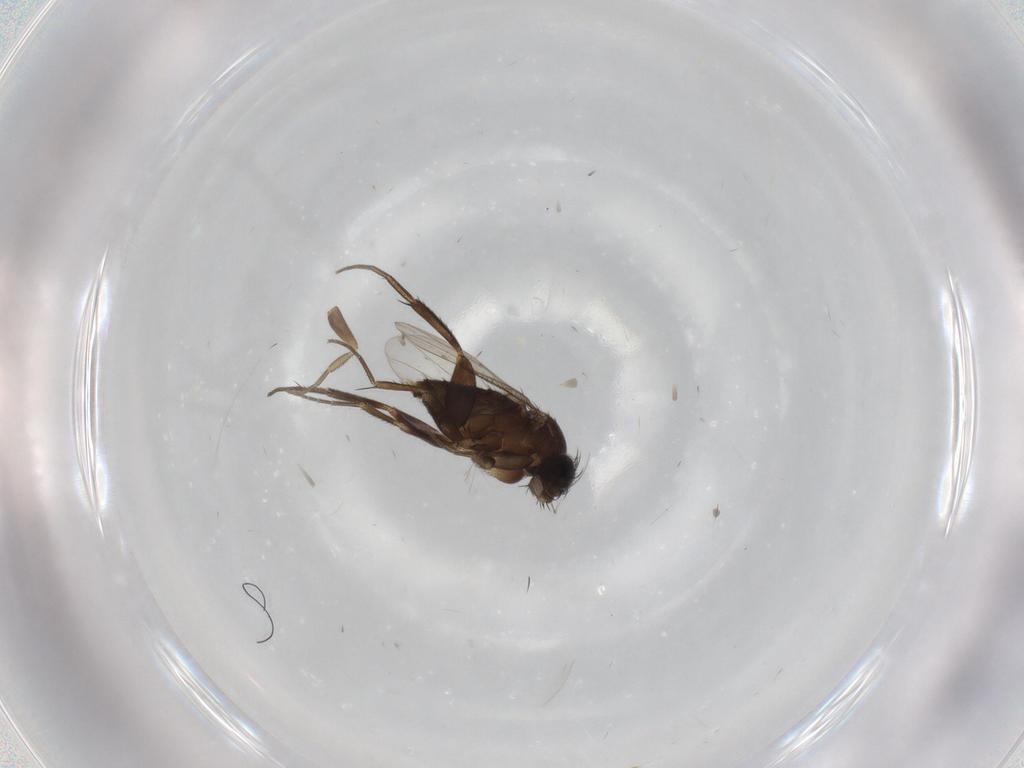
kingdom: Animalia
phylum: Arthropoda
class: Insecta
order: Diptera
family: Phoridae
